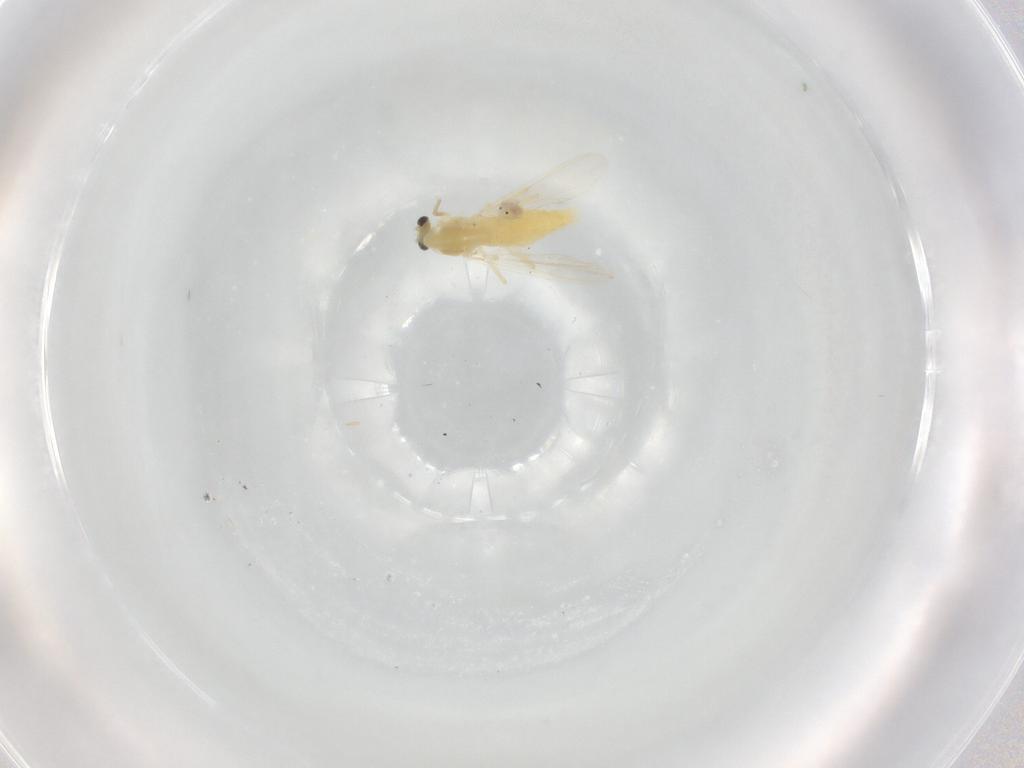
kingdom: Animalia
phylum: Arthropoda
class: Insecta
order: Diptera
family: Chironomidae
